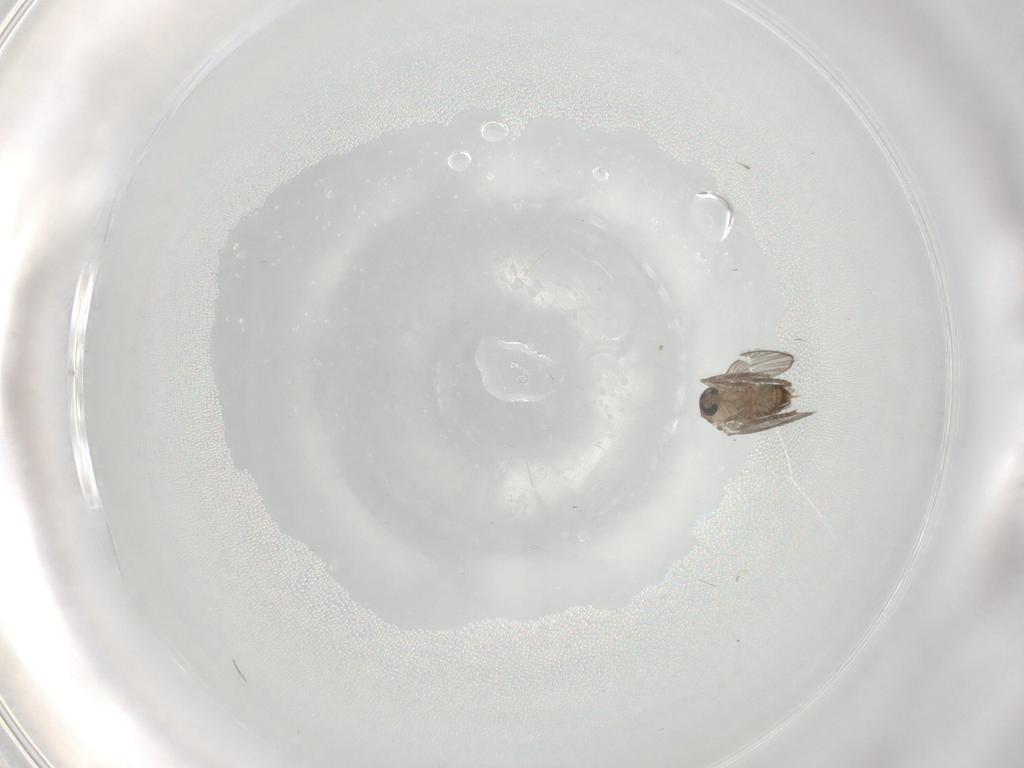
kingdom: Animalia
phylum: Arthropoda
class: Insecta
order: Diptera
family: Psychodidae
